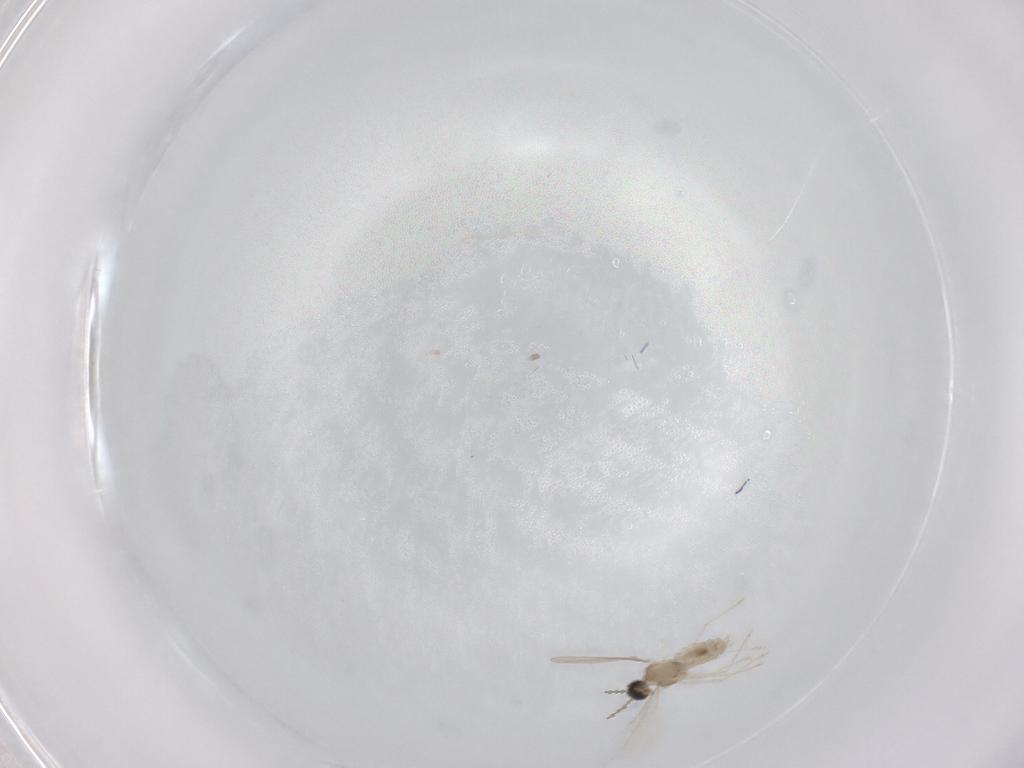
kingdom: Animalia
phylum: Arthropoda
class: Insecta
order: Diptera
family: Cecidomyiidae
